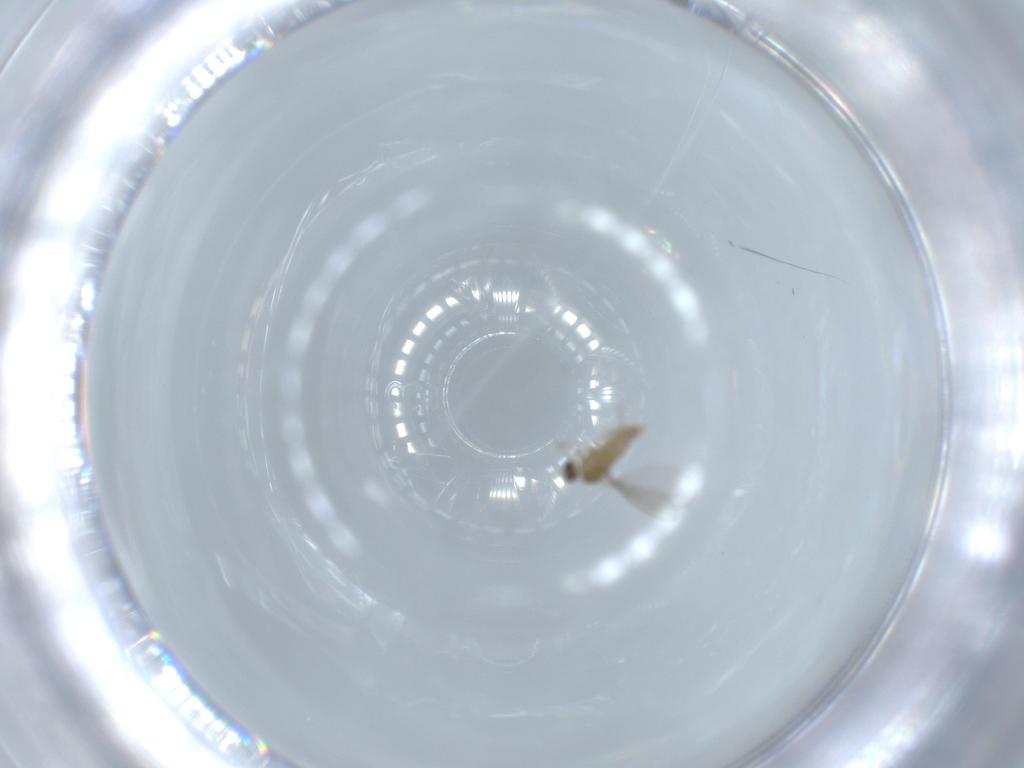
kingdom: Animalia
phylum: Arthropoda
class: Insecta
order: Diptera
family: Cecidomyiidae
